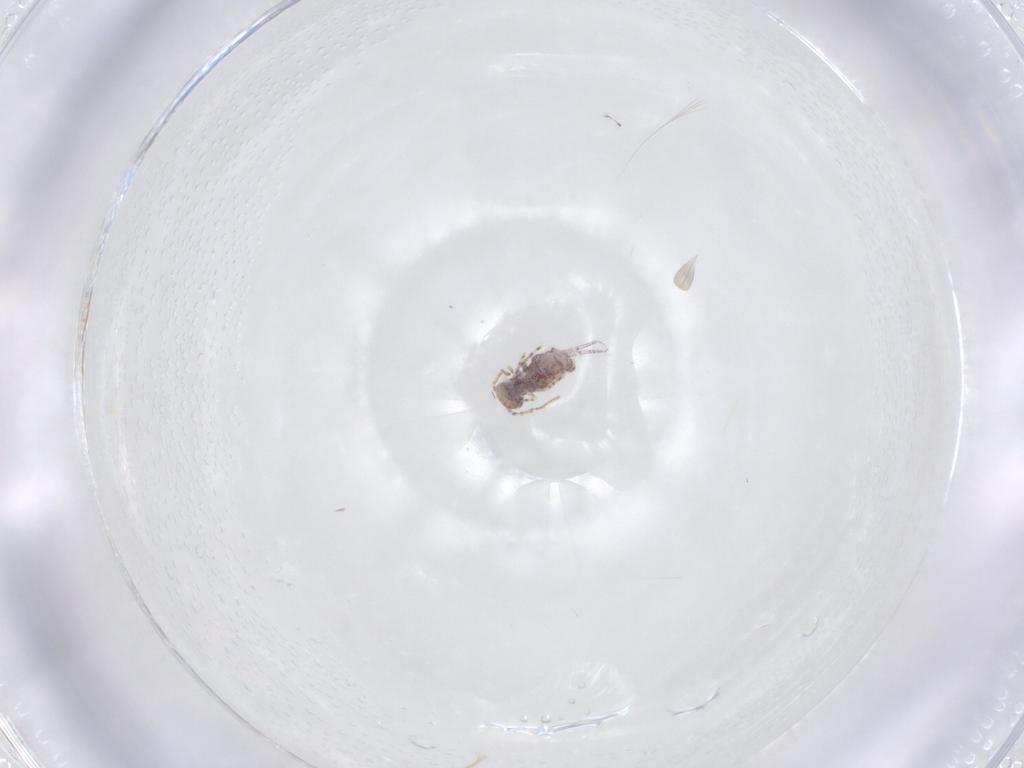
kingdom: Animalia
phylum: Arthropoda
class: Collembola
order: Symphypleona
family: Bourletiellidae
